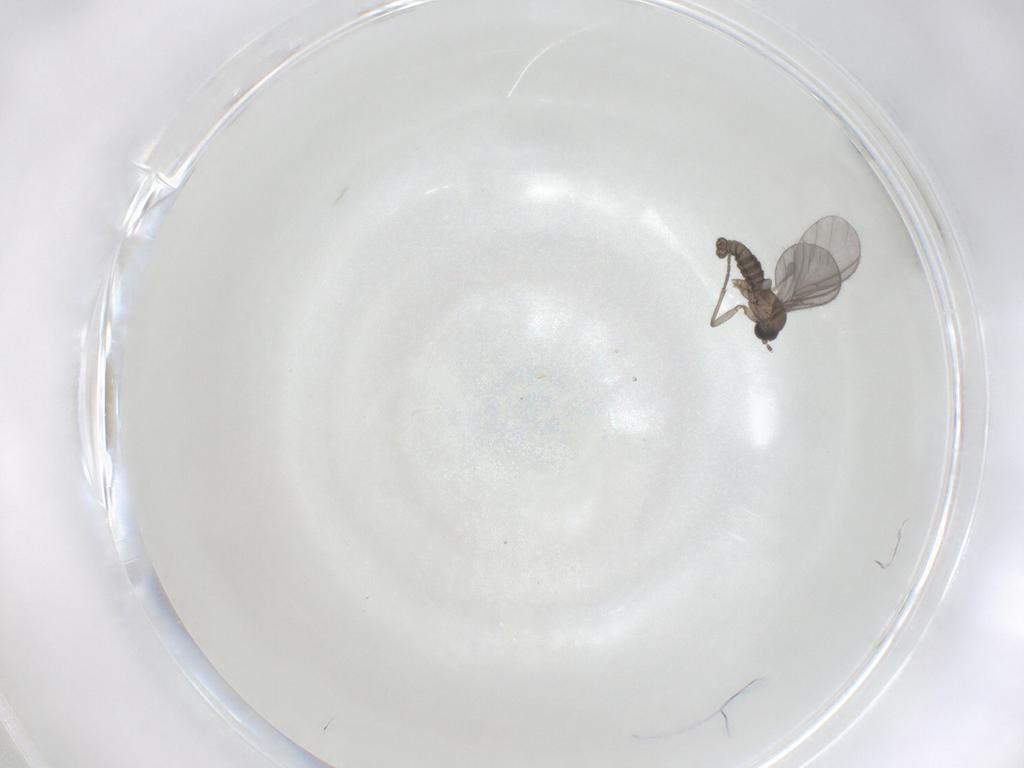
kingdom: Animalia
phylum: Arthropoda
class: Insecta
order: Diptera
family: Sciaridae
